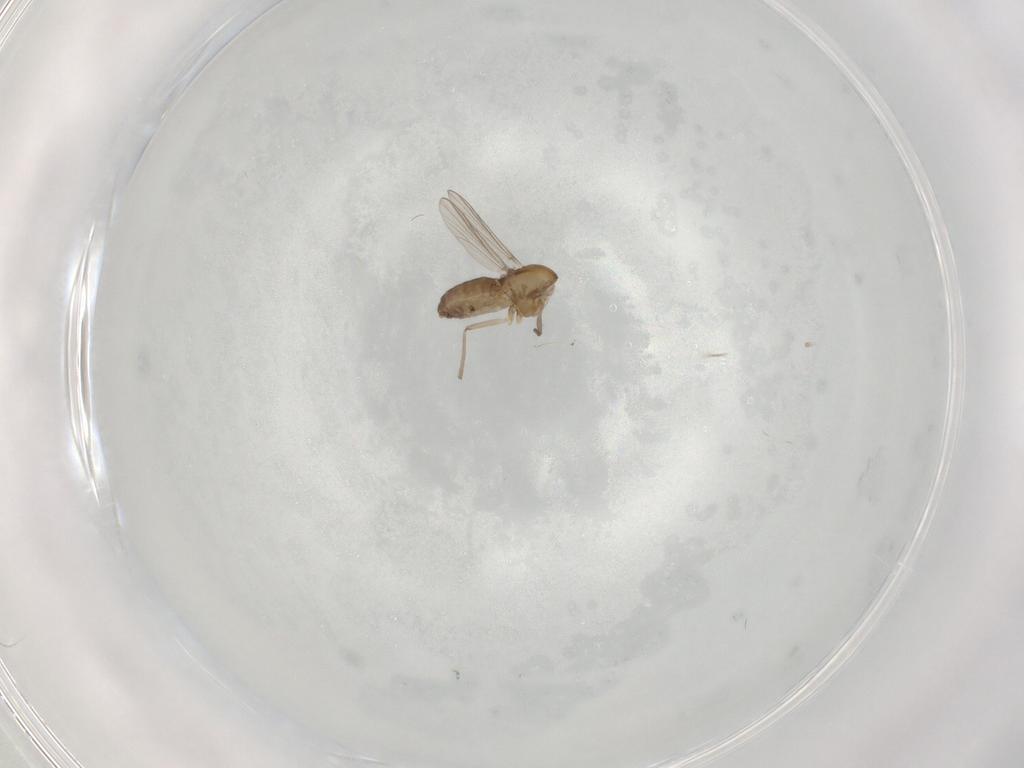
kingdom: Animalia
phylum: Arthropoda
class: Insecta
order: Diptera
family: Chironomidae
